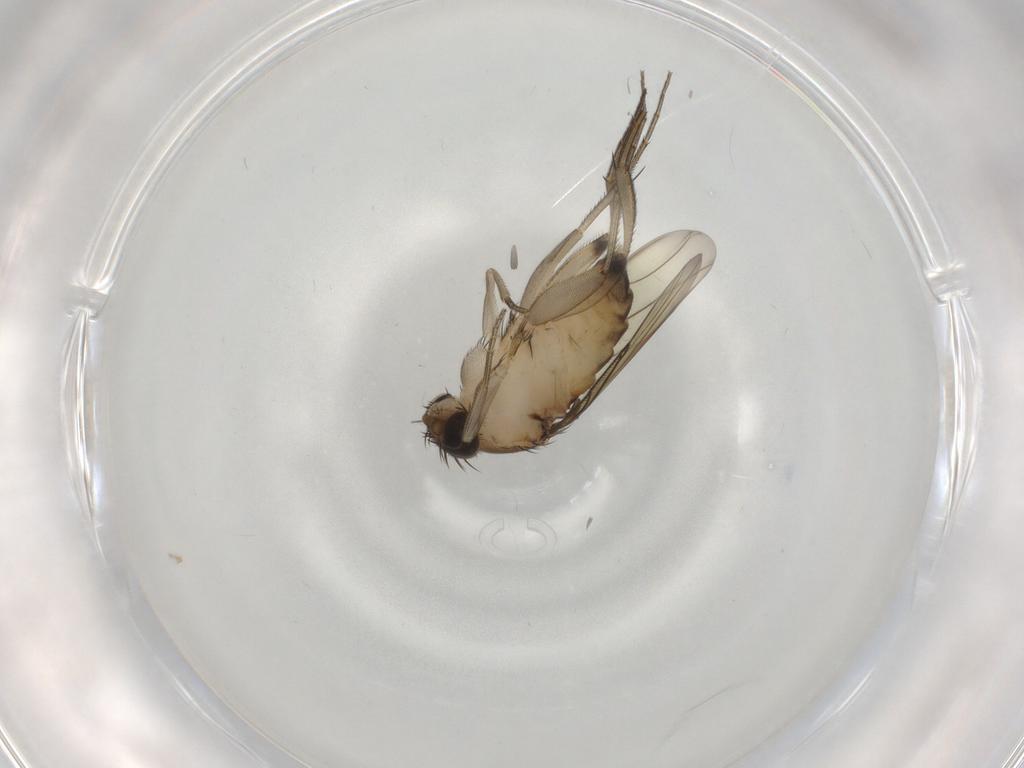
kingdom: Animalia
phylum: Arthropoda
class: Insecta
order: Diptera
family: Phoridae
